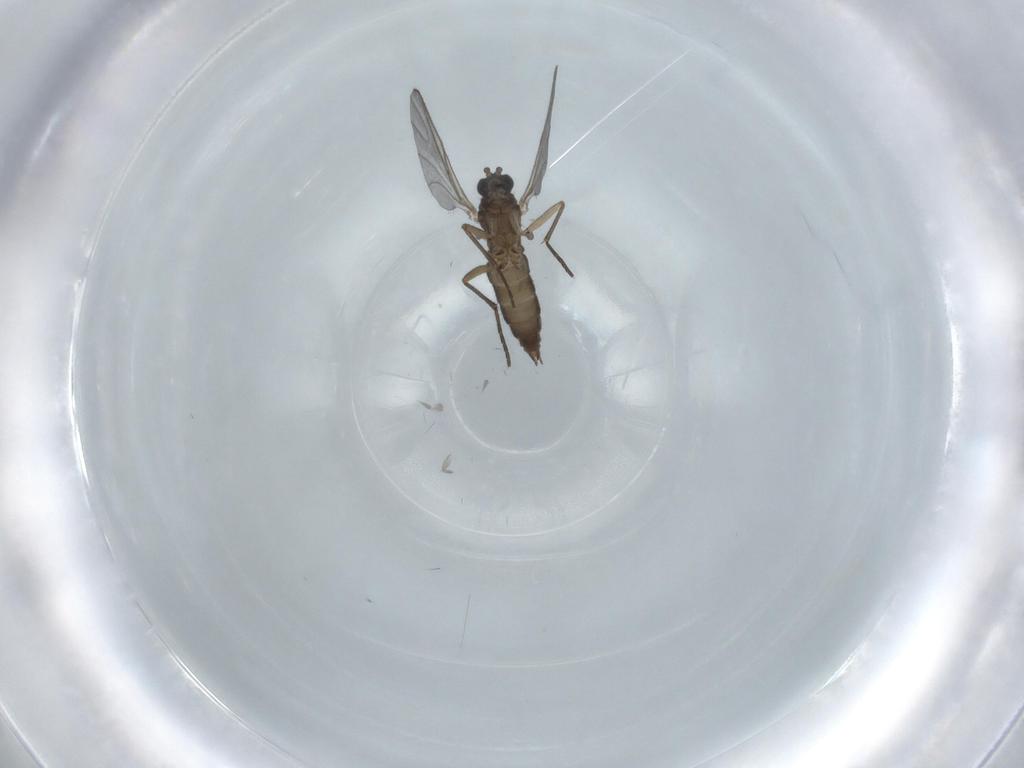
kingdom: Animalia
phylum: Arthropoda
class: Insecta
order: Diptera
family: Sciaridae
